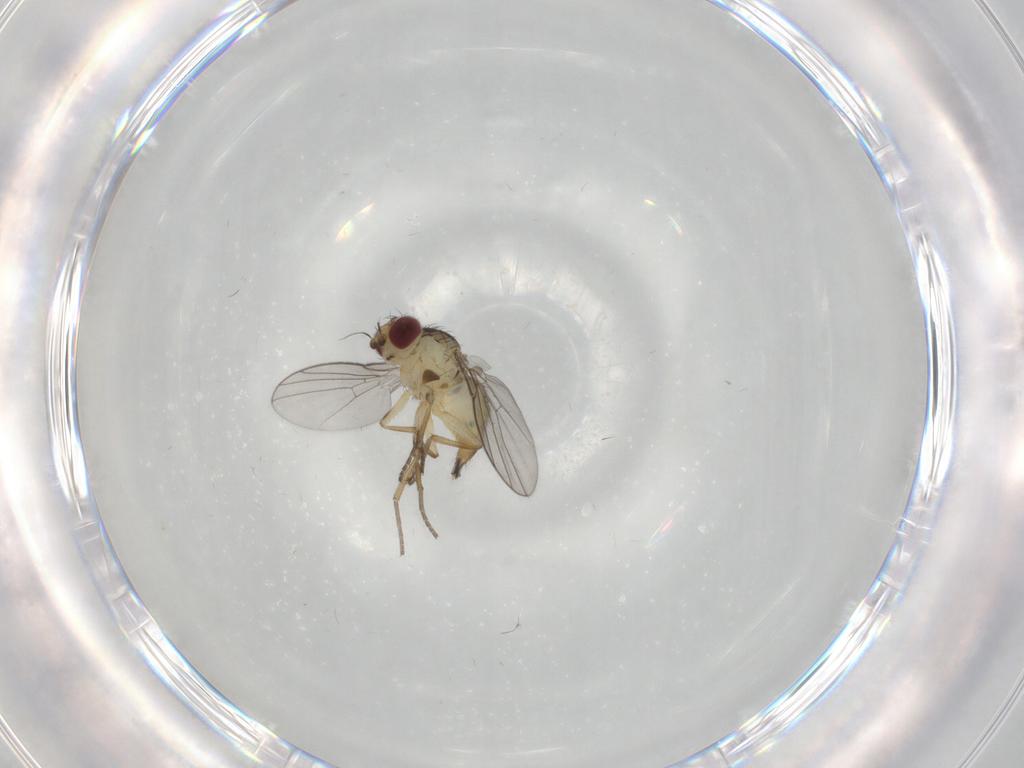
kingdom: Animalia
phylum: Arthropoda
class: Insecta
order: Diptera
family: Agromyzidae
